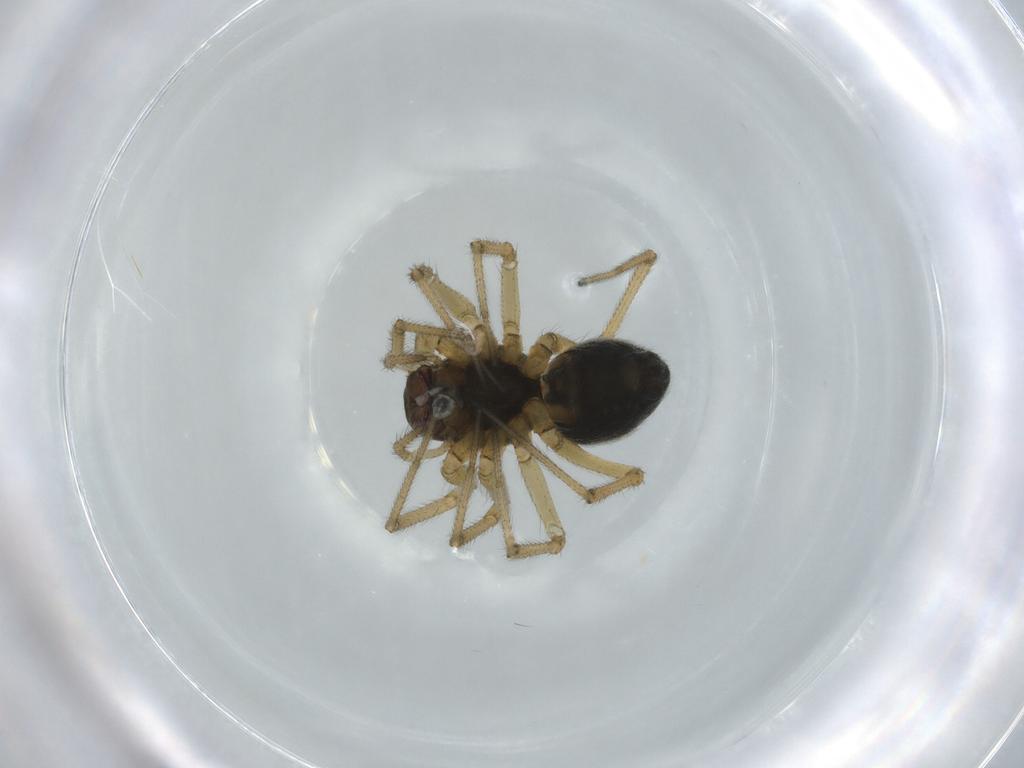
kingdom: Animalia
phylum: Arthropoda
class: Arachnida
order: Araneae
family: Linyphiidae
